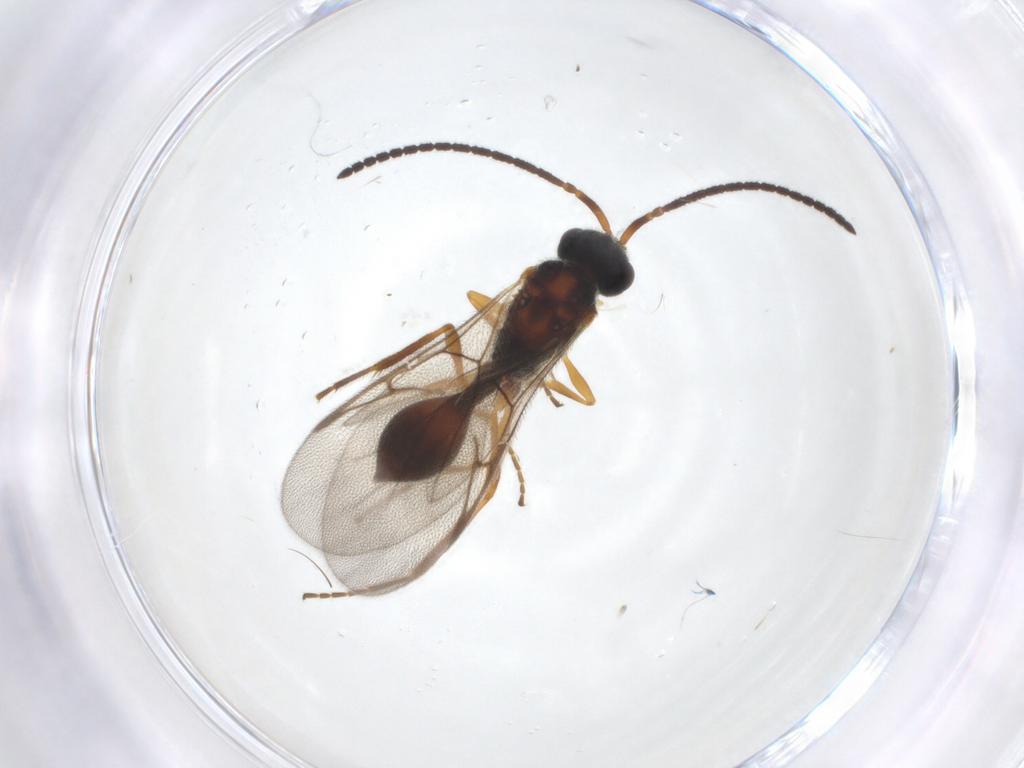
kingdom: Animalia
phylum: Arthropoda
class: Insecta
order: Hymenoptera
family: Diapriidae
